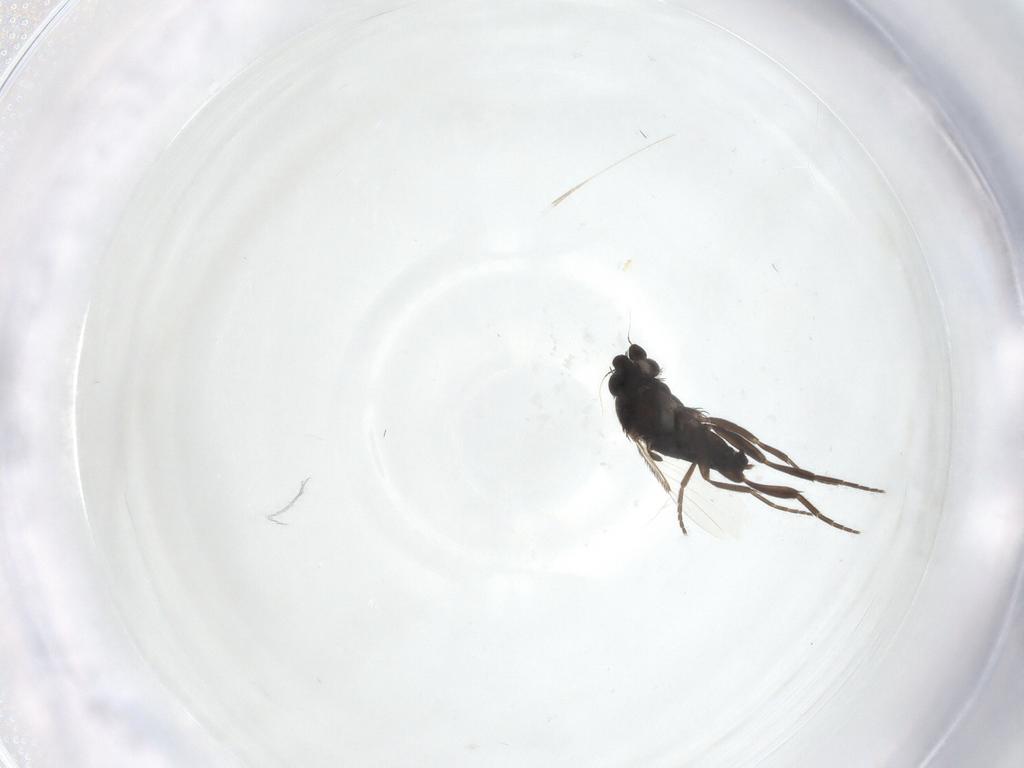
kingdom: Animalia
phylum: Arthropoda
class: Insecta
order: Diptera
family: Phoridae
